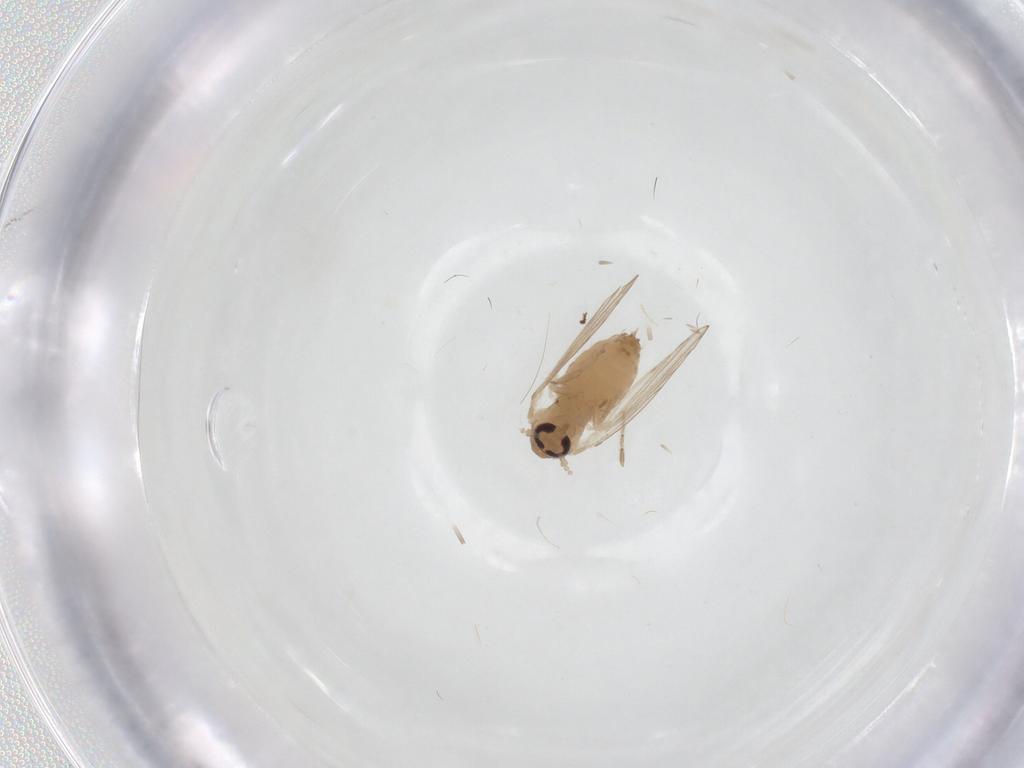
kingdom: Animalia
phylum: Arthropoda
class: Insecta
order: Diptera
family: Psychodidae
